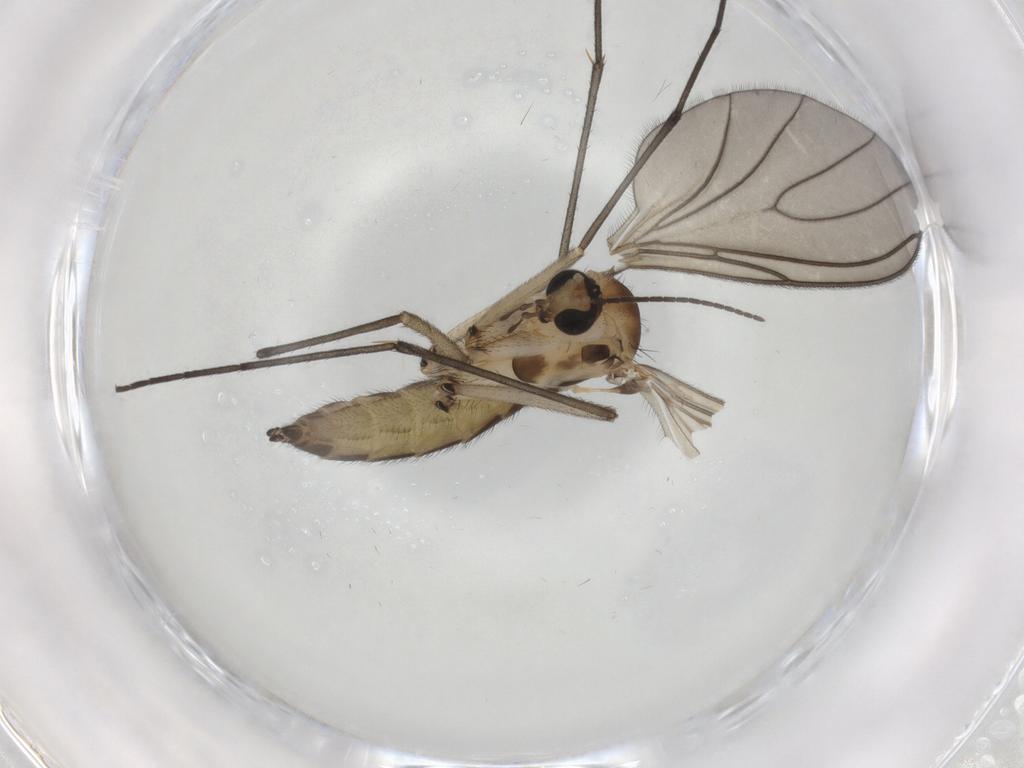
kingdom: Animalia
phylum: Arthropoda
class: Insecta
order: Diptera
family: Sciaridae
